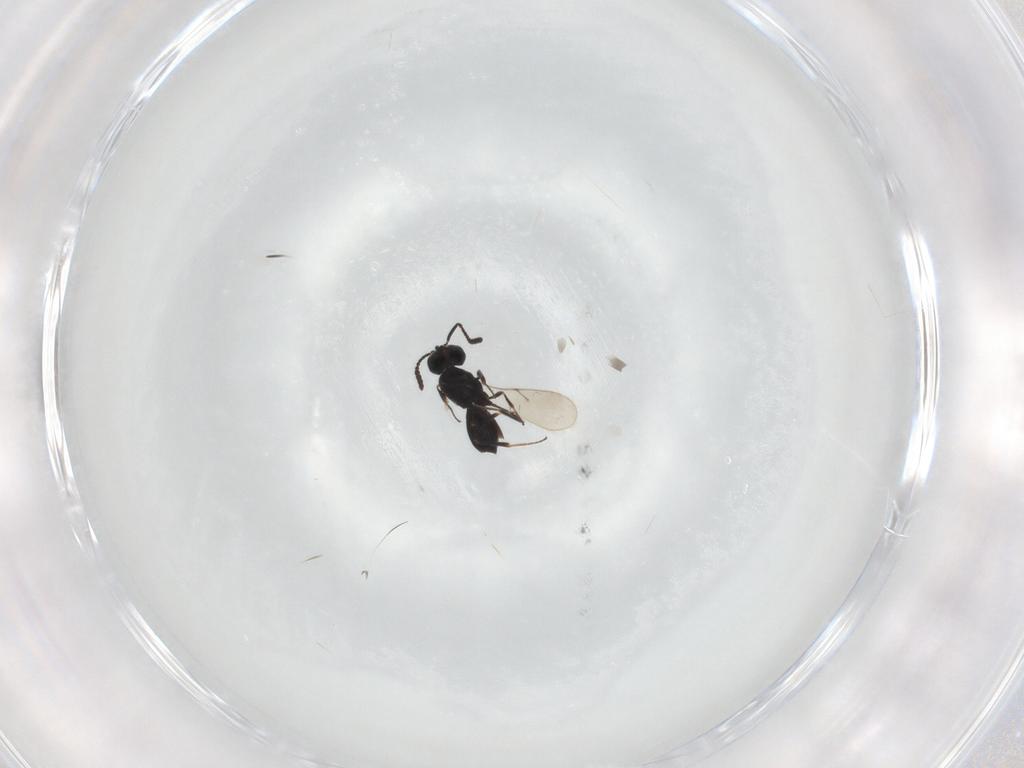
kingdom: Animalia
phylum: Arthropoda
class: Insecta
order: Hymenoptera
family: Scelionidae
